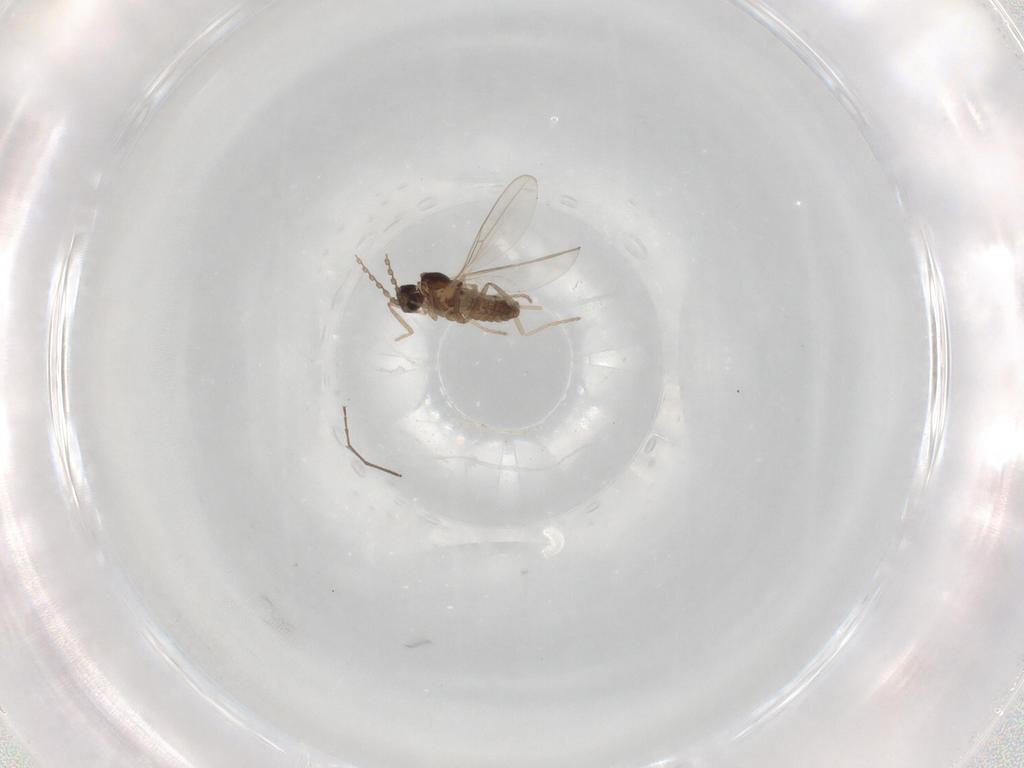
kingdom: Animalia
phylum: Arthropoda
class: Insecta
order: Diptera
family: Cecidomyiidae
